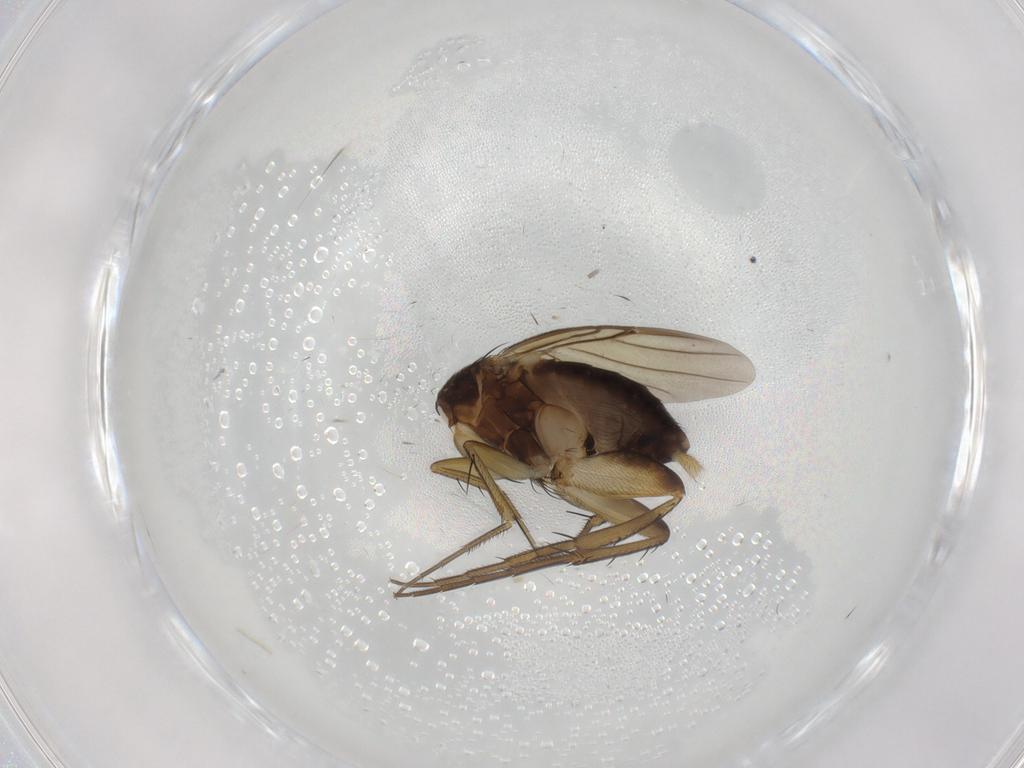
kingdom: Animalia
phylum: Arthropoda
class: Insecta
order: Diptera
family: Phoridae
